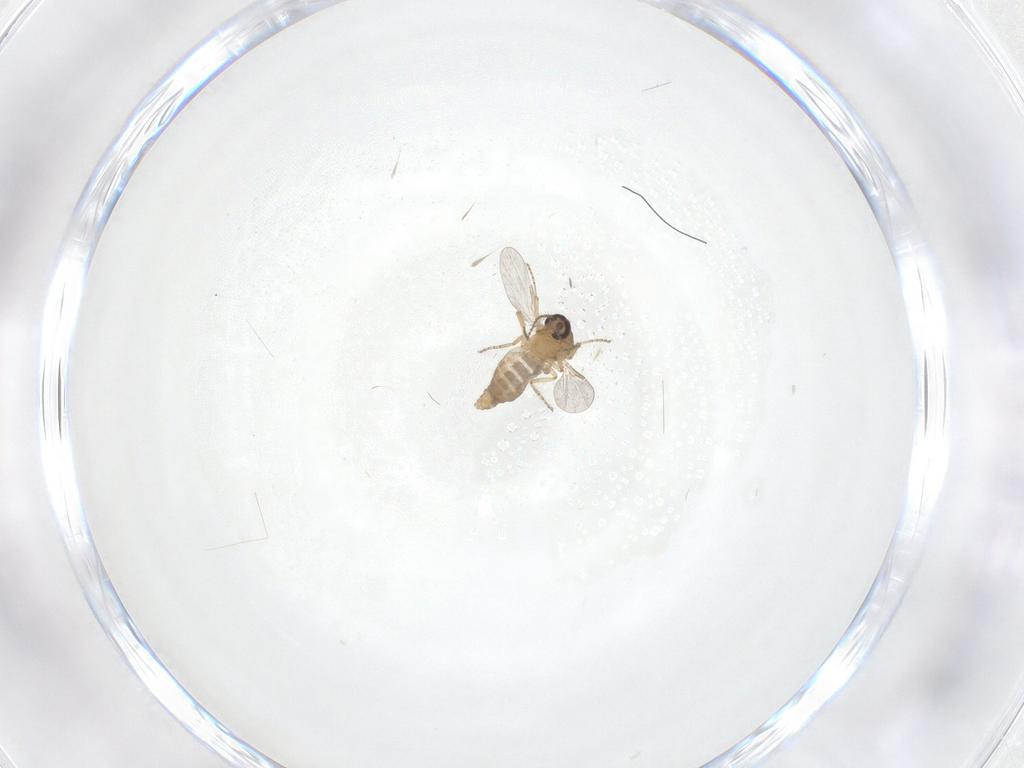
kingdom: Animalia
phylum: Arthropoda
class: Insecta
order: Diptera
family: Ceratopogonidae
